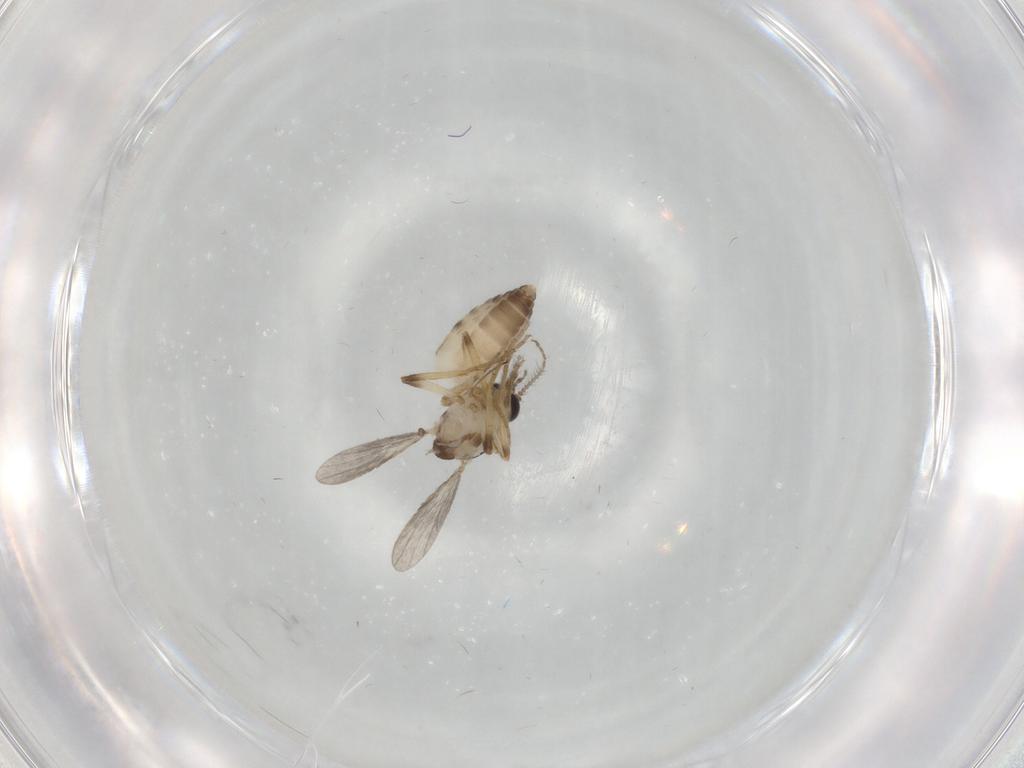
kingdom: Animalia
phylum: Arthropoda
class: Insecta
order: Diptera
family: Ceratopogonidae
